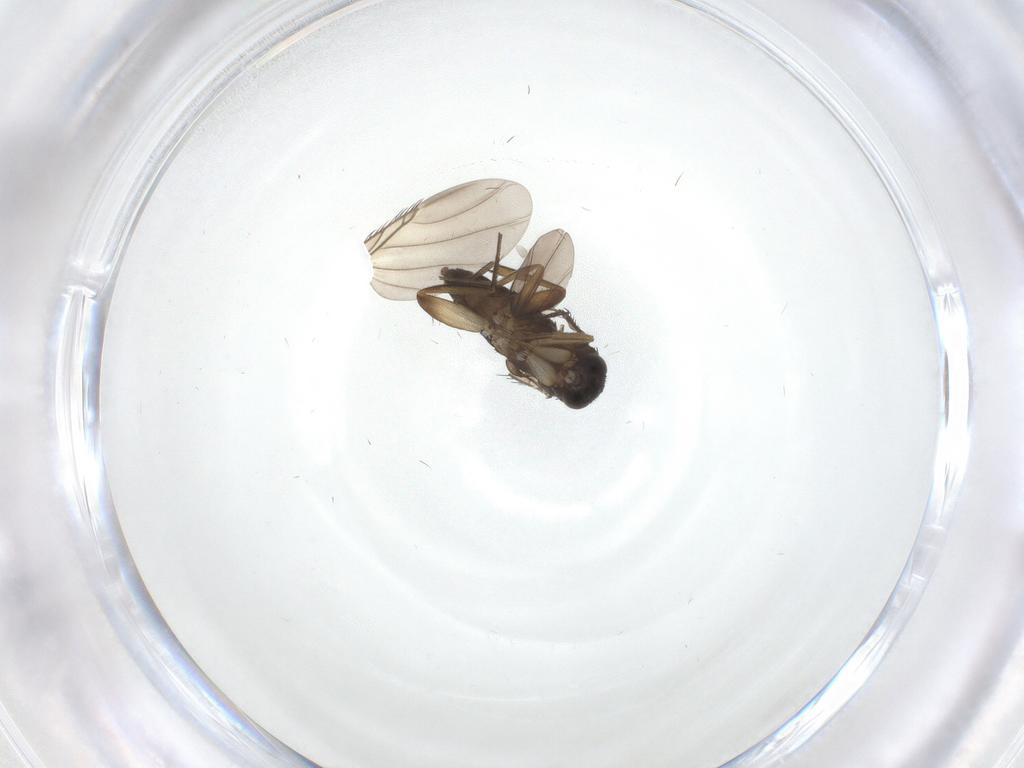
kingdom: Animalia
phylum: Arthropoda
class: Insecta
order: Diptera
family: Phoridae
